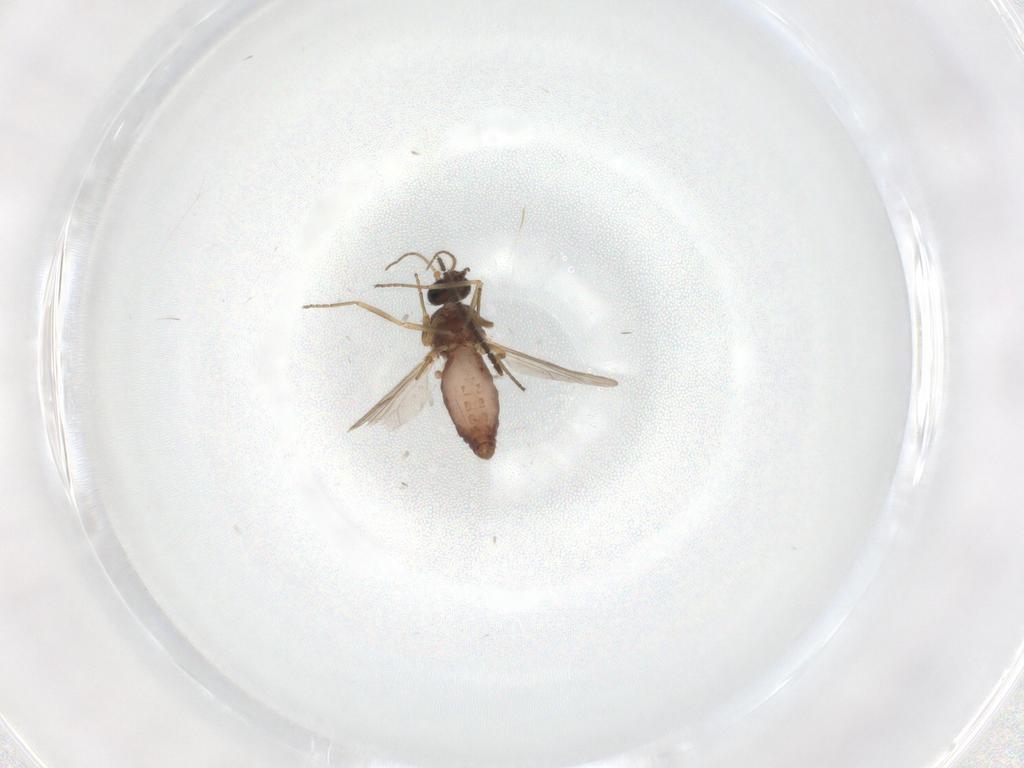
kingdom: Animalia
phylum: Arthropoda
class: Insecta
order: Diptera
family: Ceratopogonidae
